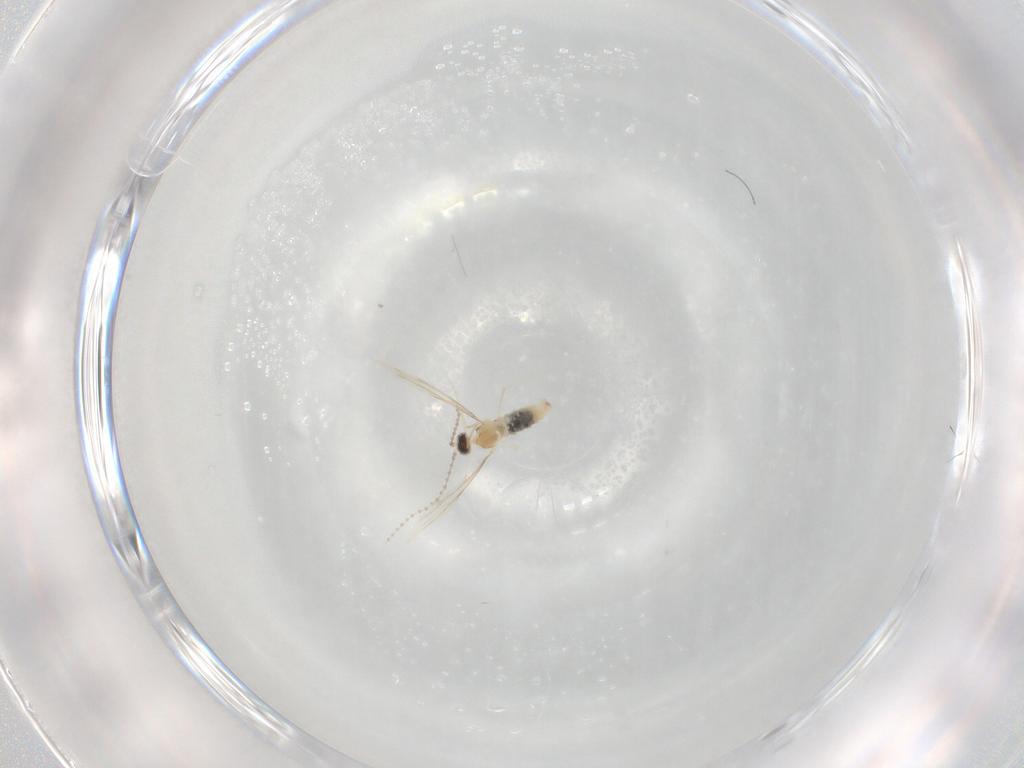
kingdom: Animalia
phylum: Arthropoda
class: Insecta
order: Diptera
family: Cecidomyiidae
